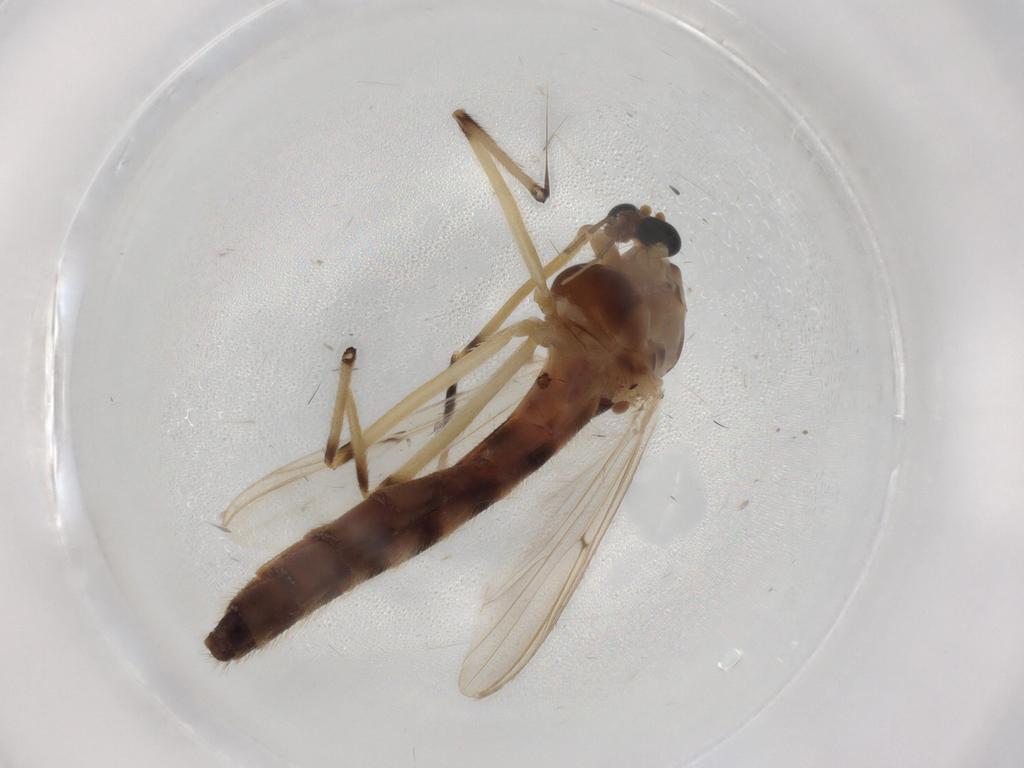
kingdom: Animalia
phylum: Arthropoda
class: Insecta
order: Diptera
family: Chironomidae
